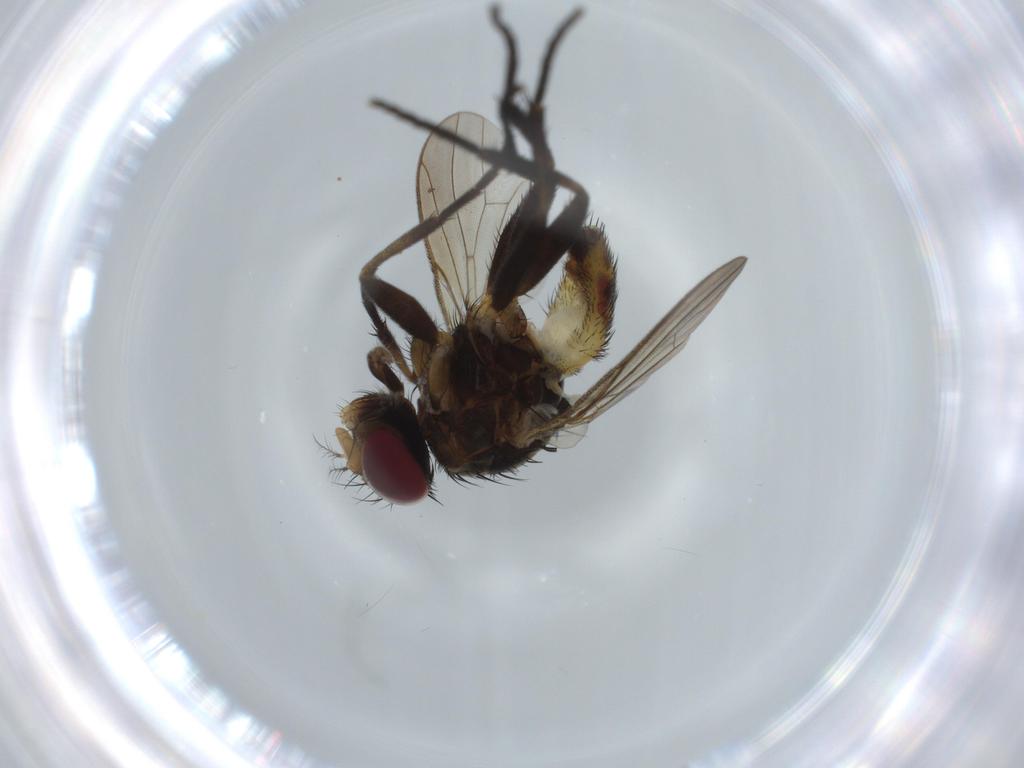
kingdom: Animalia
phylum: Arthropoda
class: Insecta
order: Diptera
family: Anthomyiidae
